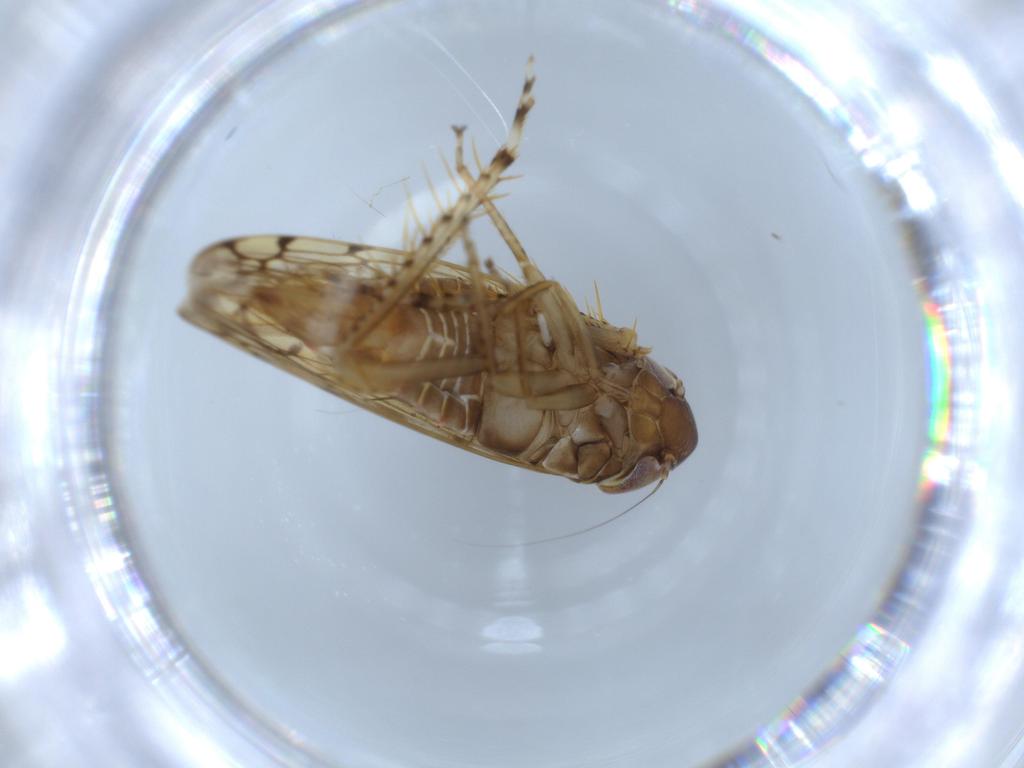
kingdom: Animalia
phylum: Arthropoda
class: Insecta
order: Hemiptera
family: Cicadellidae
